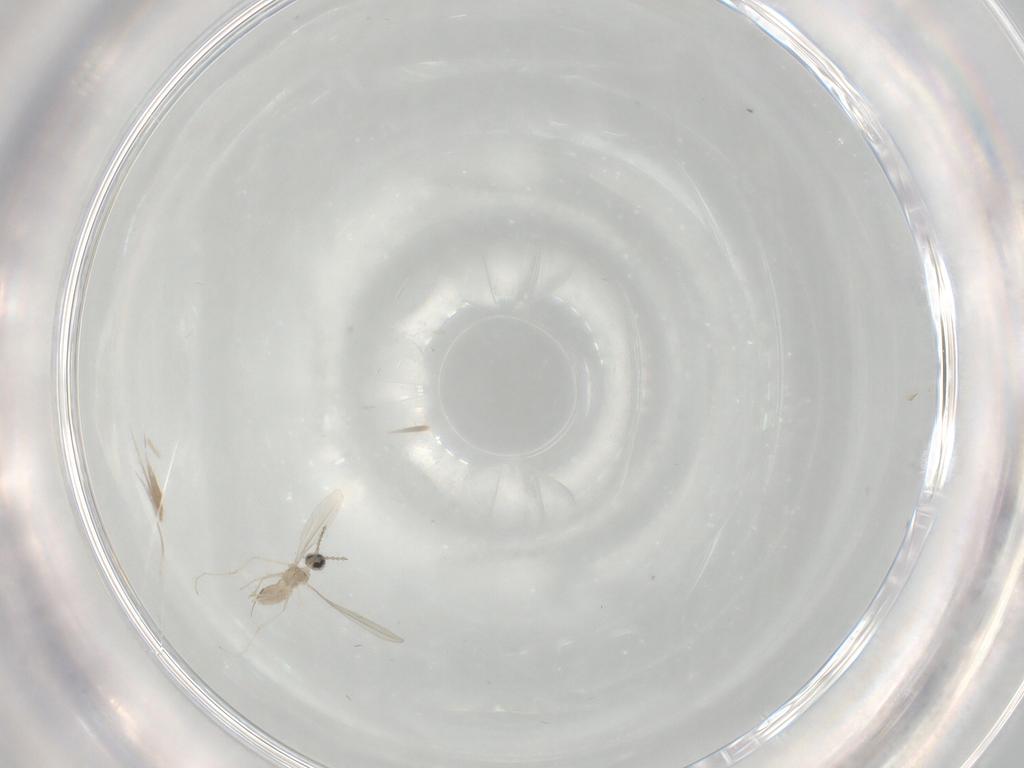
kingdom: Animalia
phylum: Arthropoda
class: Insecta
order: Diptera
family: Cecidomyiidae
